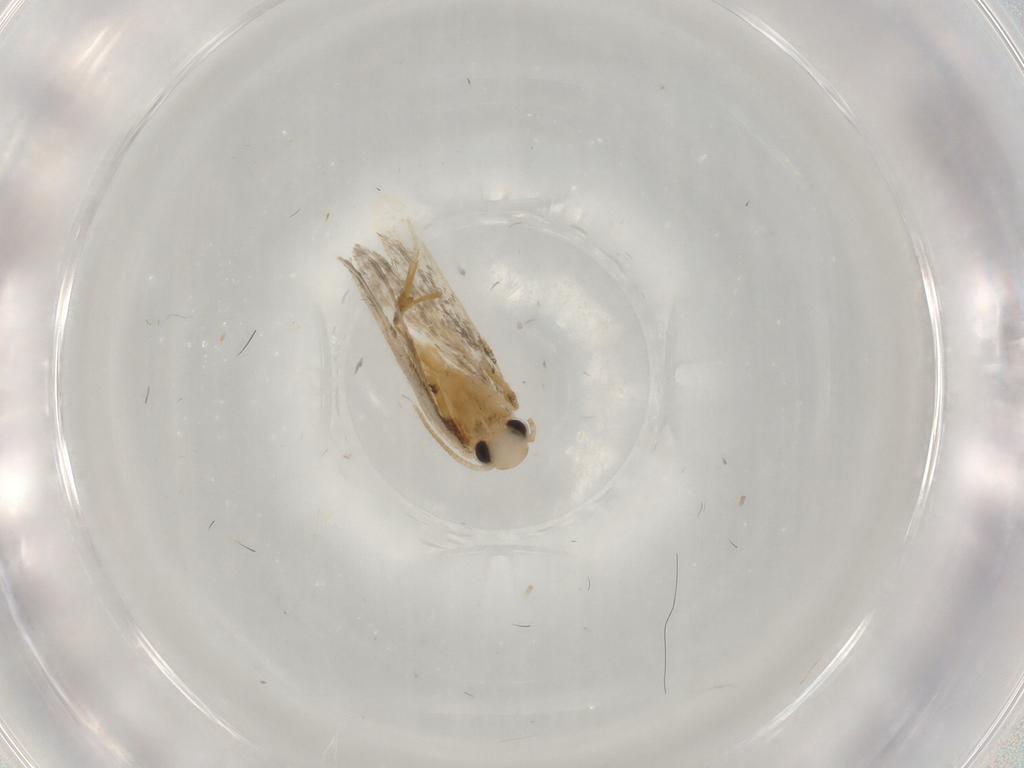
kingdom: Animalia
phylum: Arthropoda
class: Insecta
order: Lepidoptera
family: Psychidae
